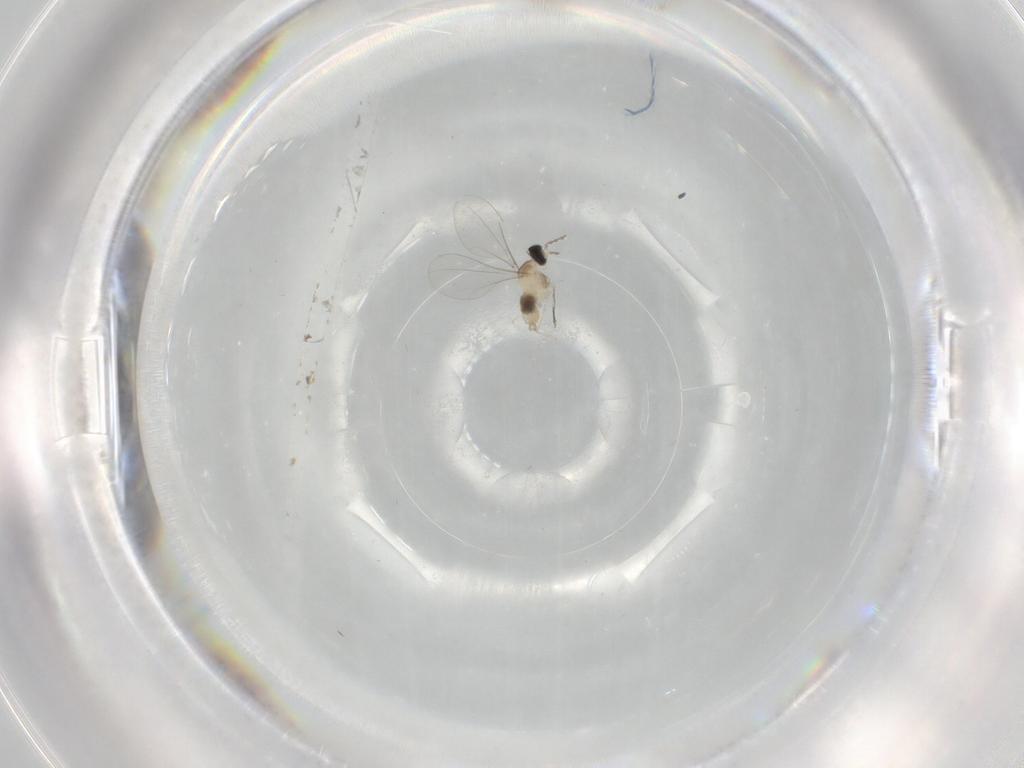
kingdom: Animalia
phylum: Arthropoda
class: Insecta
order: Diptera
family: Cecidomyiidae
